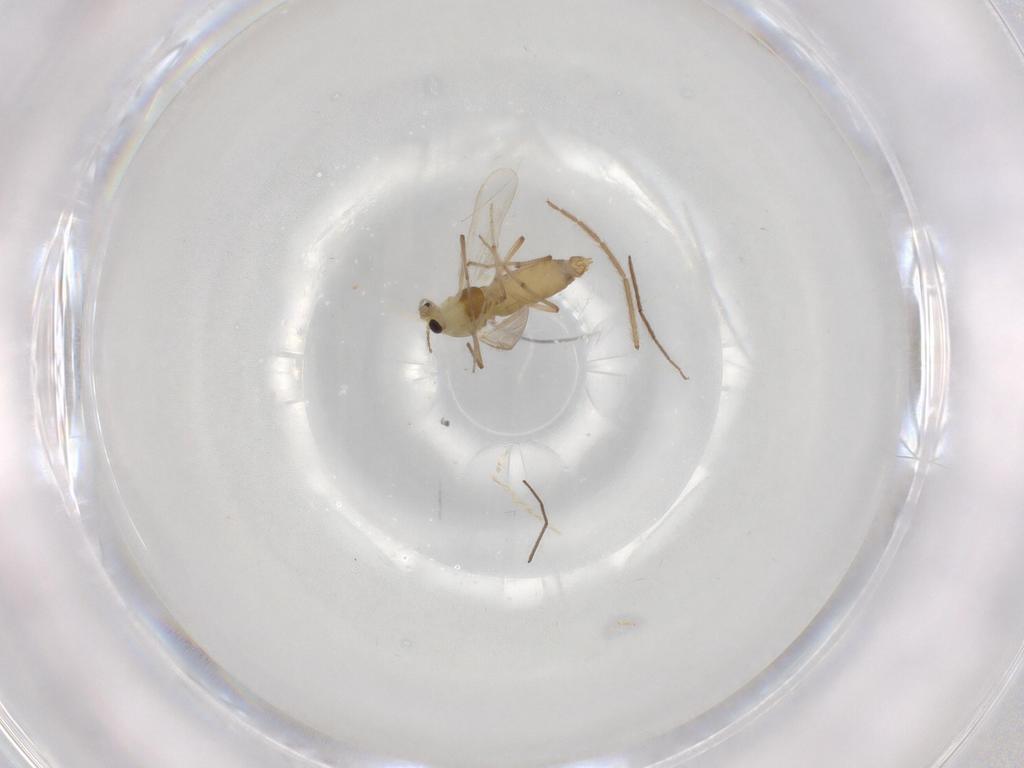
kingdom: Animalia
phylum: Arthropoda
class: Insecta
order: Diptera
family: Chironomidae
